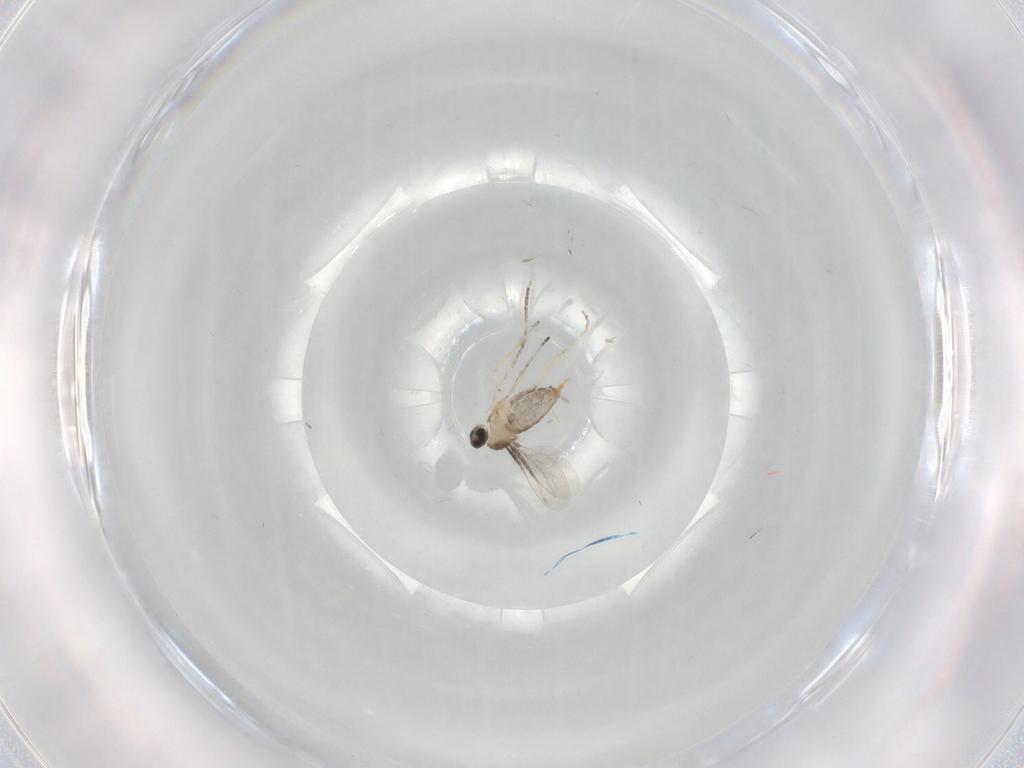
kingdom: Animalia
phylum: Arthropoda
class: Insecta
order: Diptera
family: Cecidomyiidae
